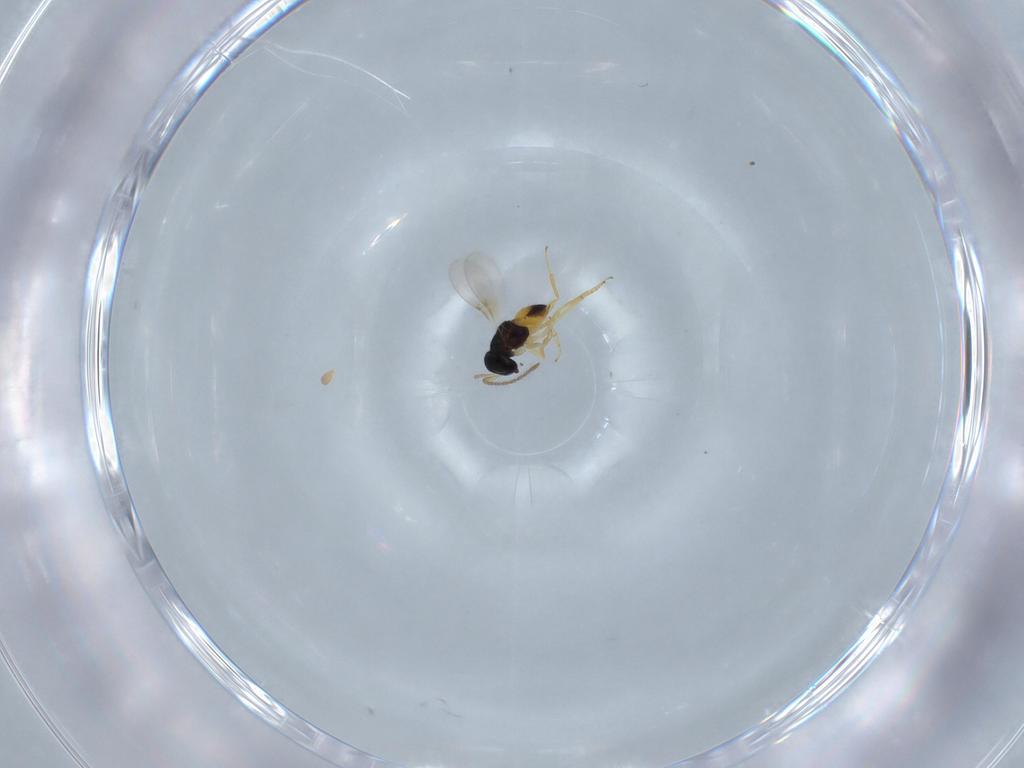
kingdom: Animalia
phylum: Arthropoda
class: Insecta
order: Hymenoptera
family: Encyrtidae
